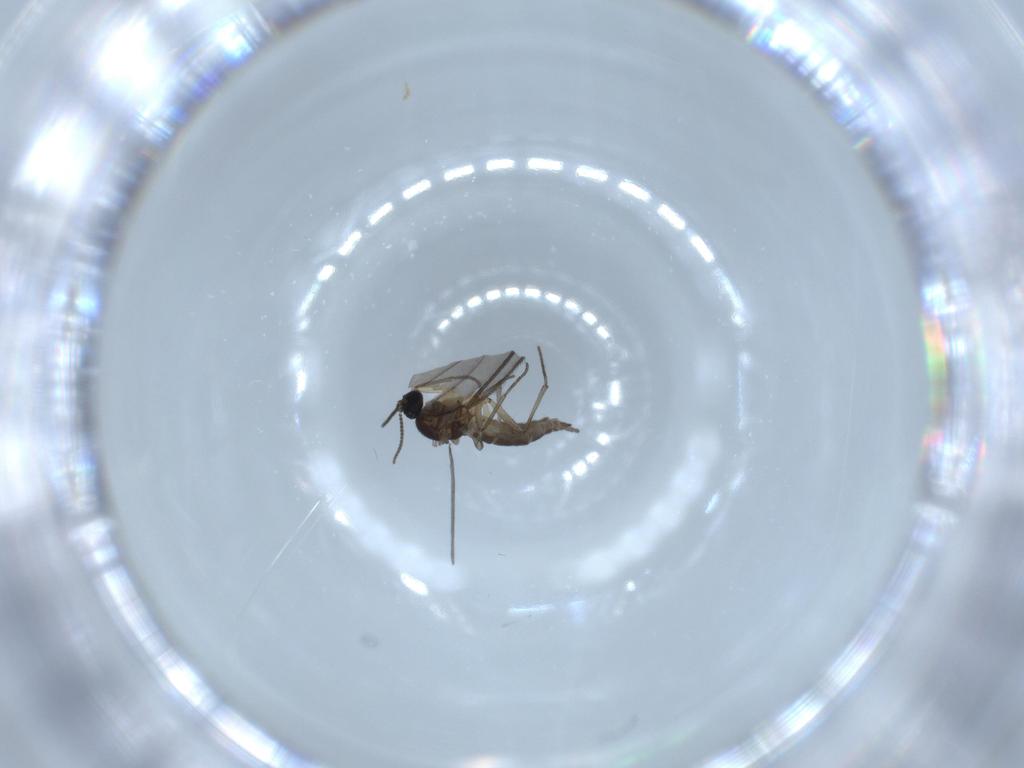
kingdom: Animalia
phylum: Arthropoda
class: Insecta
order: Diptera
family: Sciaridae
